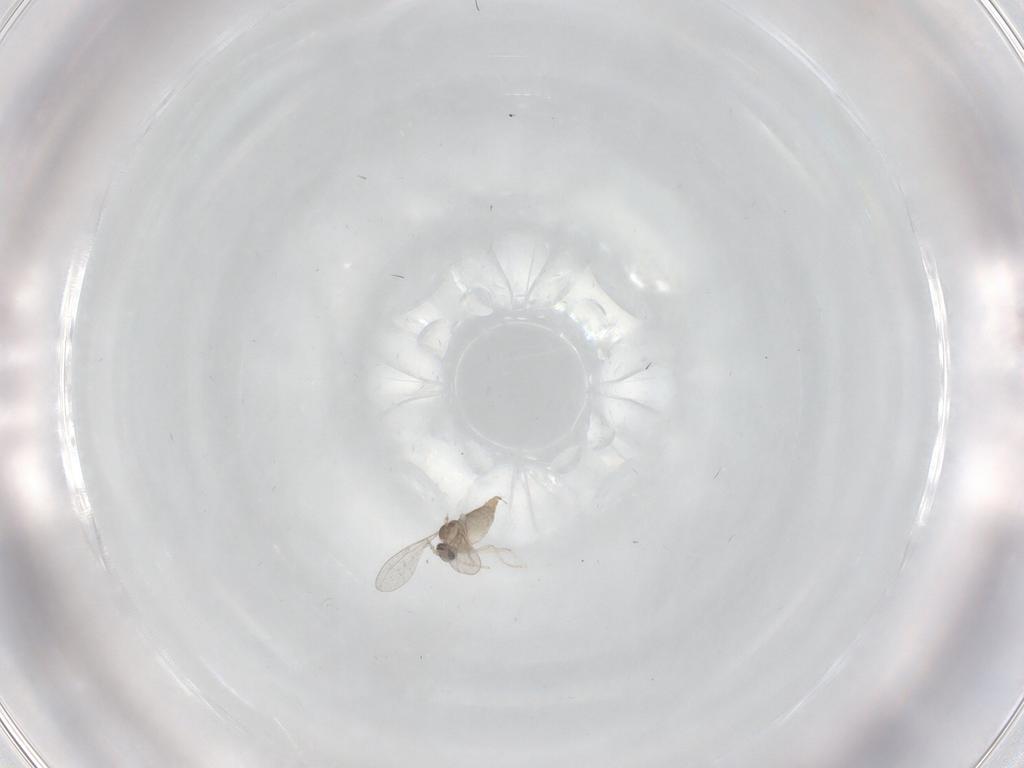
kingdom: Animalia
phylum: Arthropoda
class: Insecta
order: Diptera
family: Cecidomyiidae
